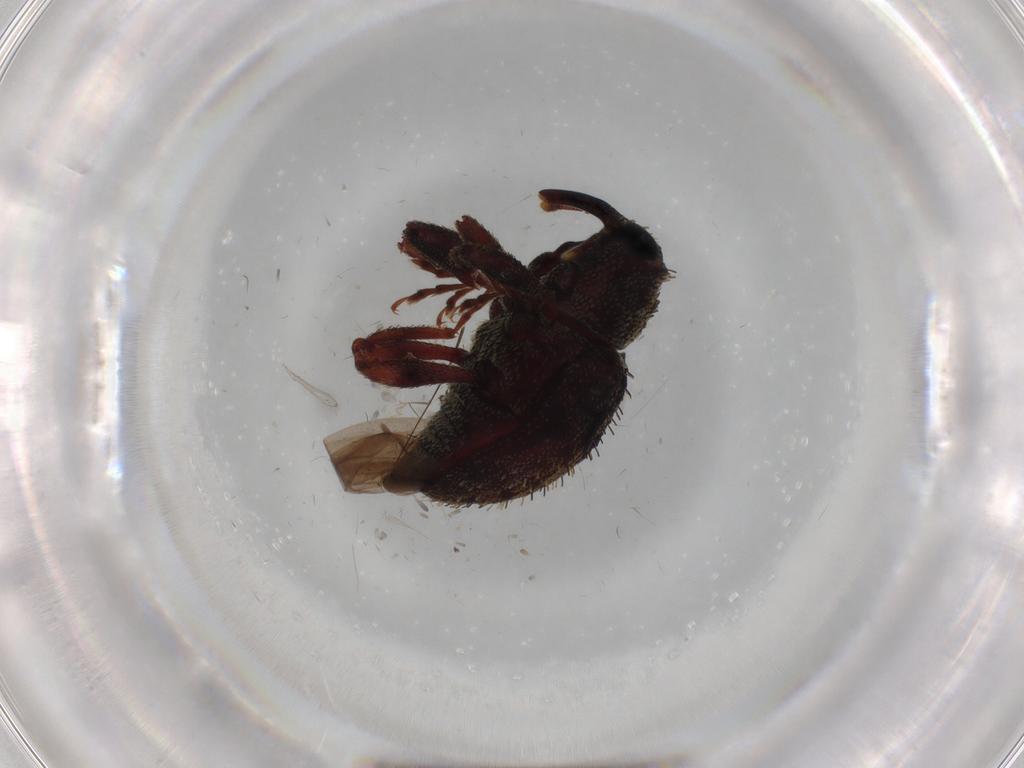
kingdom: Animalia
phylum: Arthropoda
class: Insecta
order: Coleoptera
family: Curculionidae
